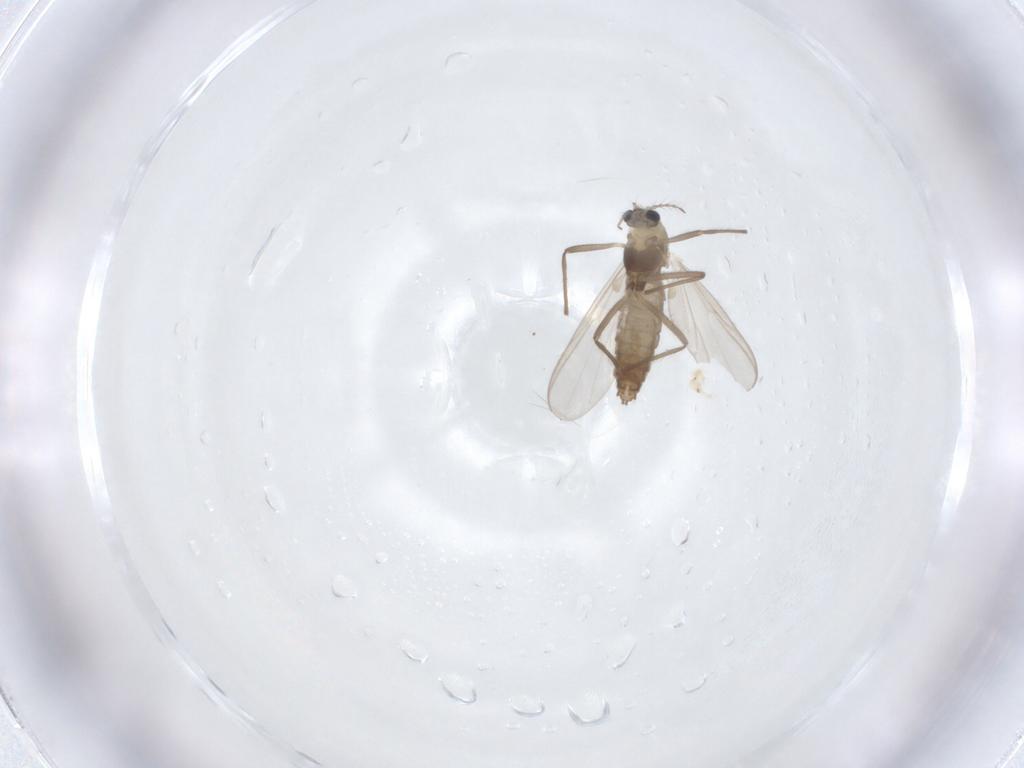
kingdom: Animalia
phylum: Arthropoda
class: Insecta
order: Diptera
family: Chironomidae
